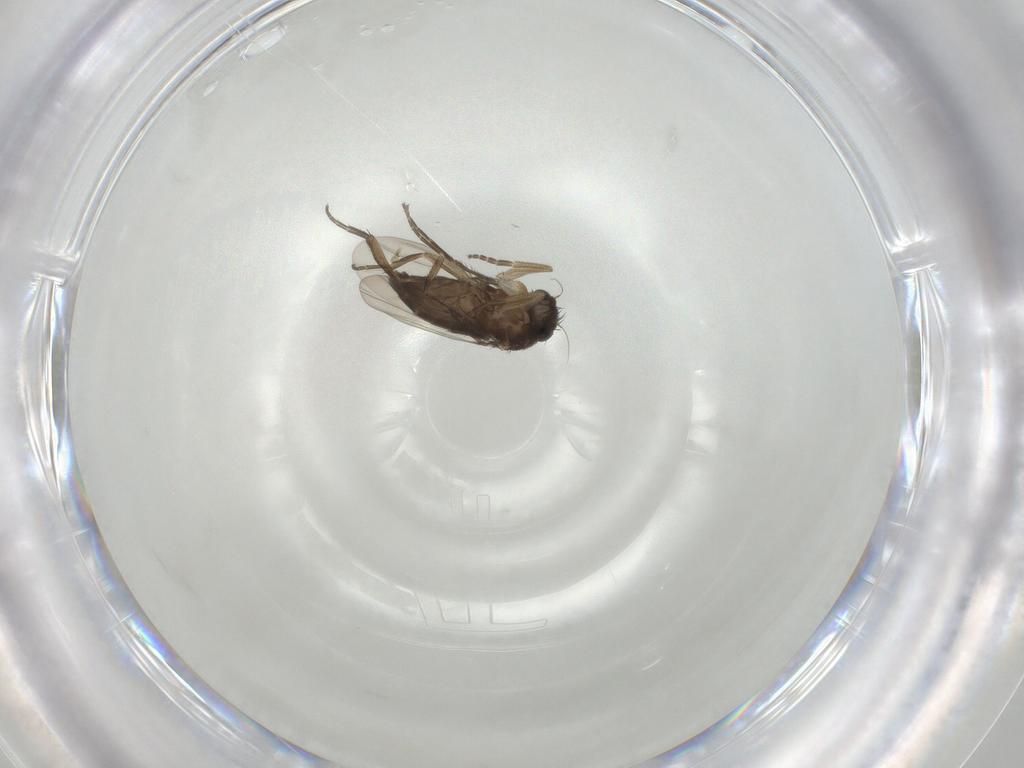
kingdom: Animalia
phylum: Arthropoda
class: Insecta
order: Diptera
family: Phoridae
